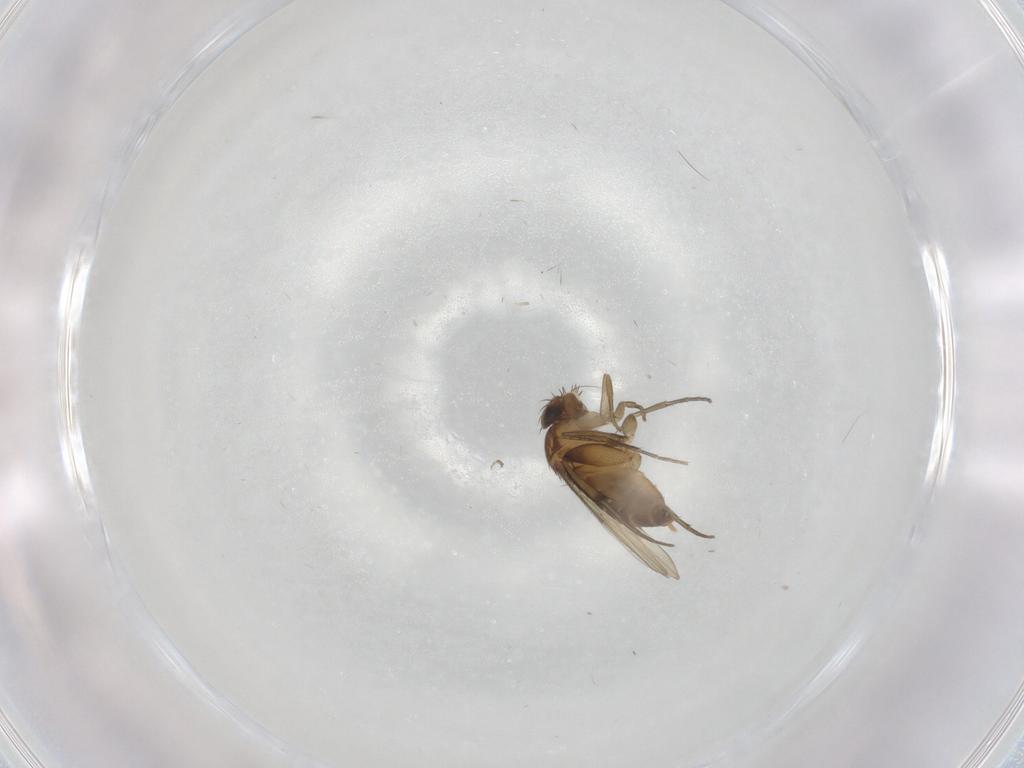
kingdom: Animalia
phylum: Arthropoda
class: Insecta
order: Diptera
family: Phoridae
